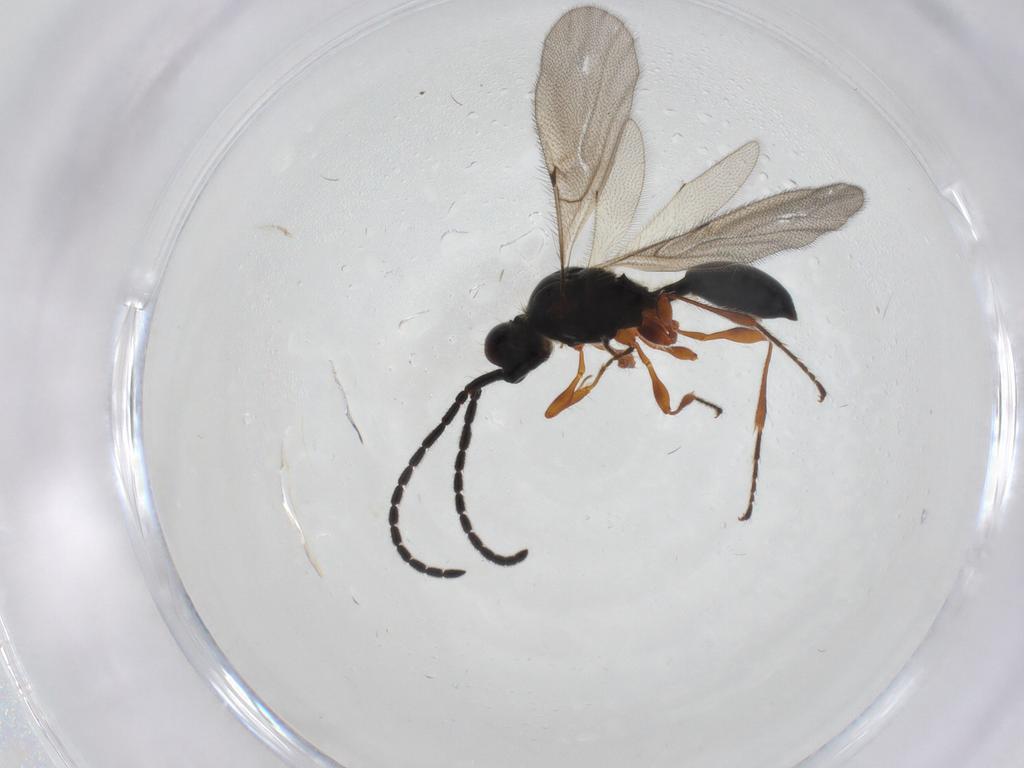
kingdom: Animalia
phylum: Arthropoda
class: Insecta
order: Hymenoptera
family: Diapriidae
